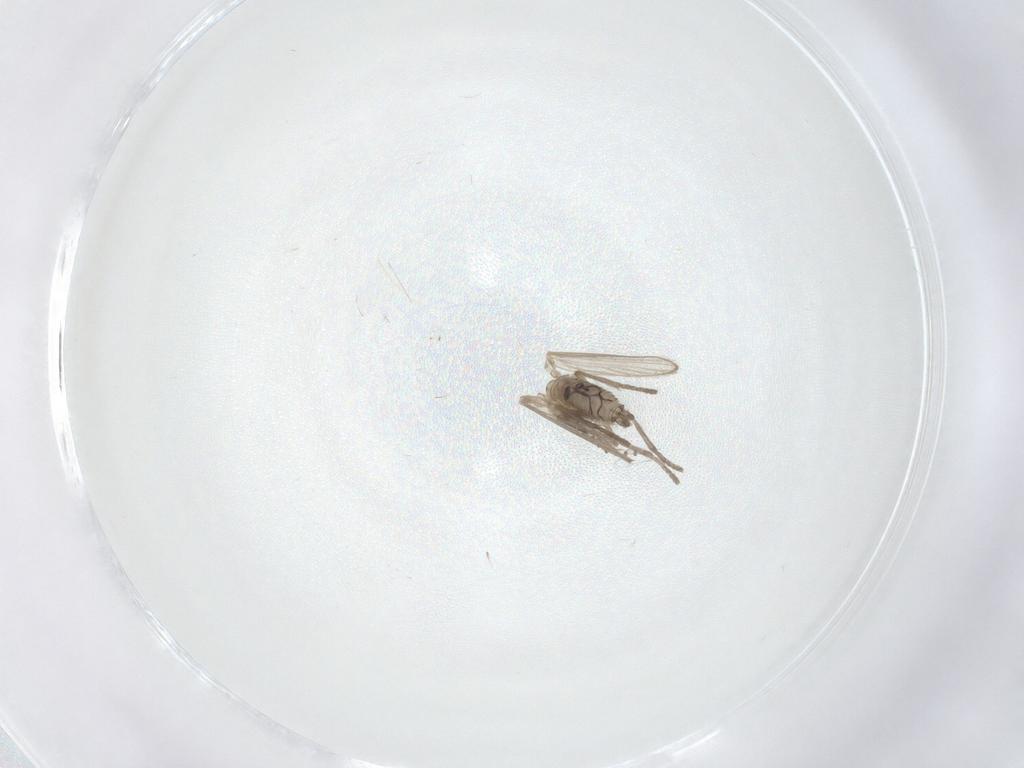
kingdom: Animalia
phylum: Arthropoda
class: Insecta
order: Diptera
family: Psychodidae
